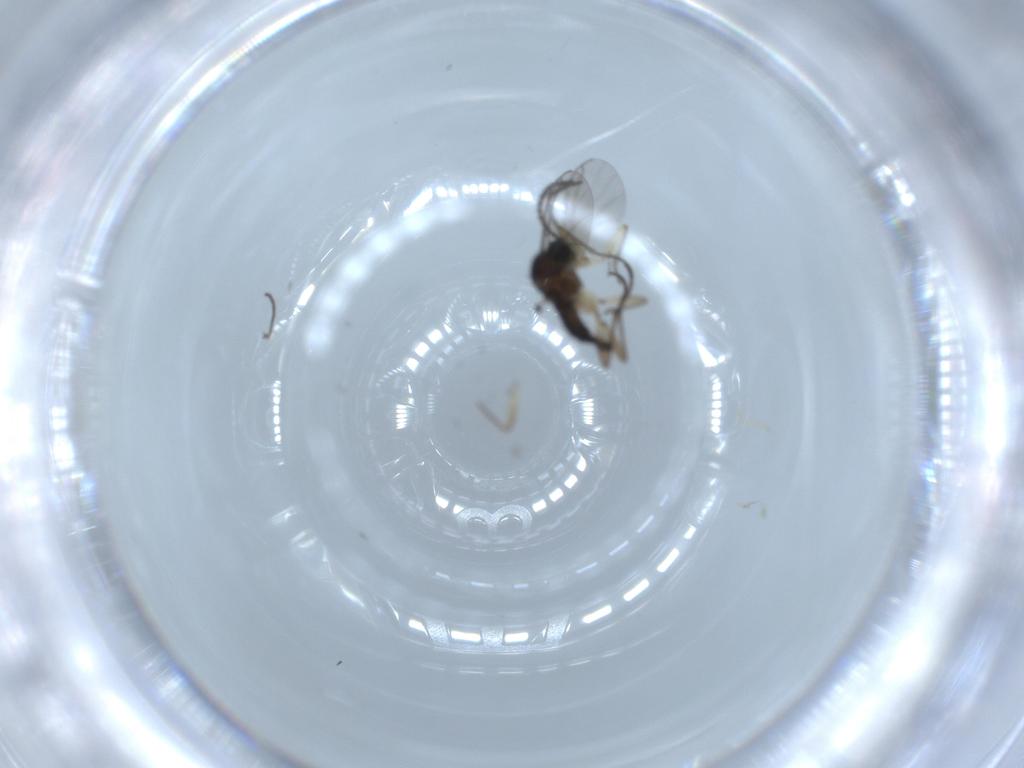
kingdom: Animalia
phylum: Arthropoda
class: Insecta
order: Diptera
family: Sciaridae
